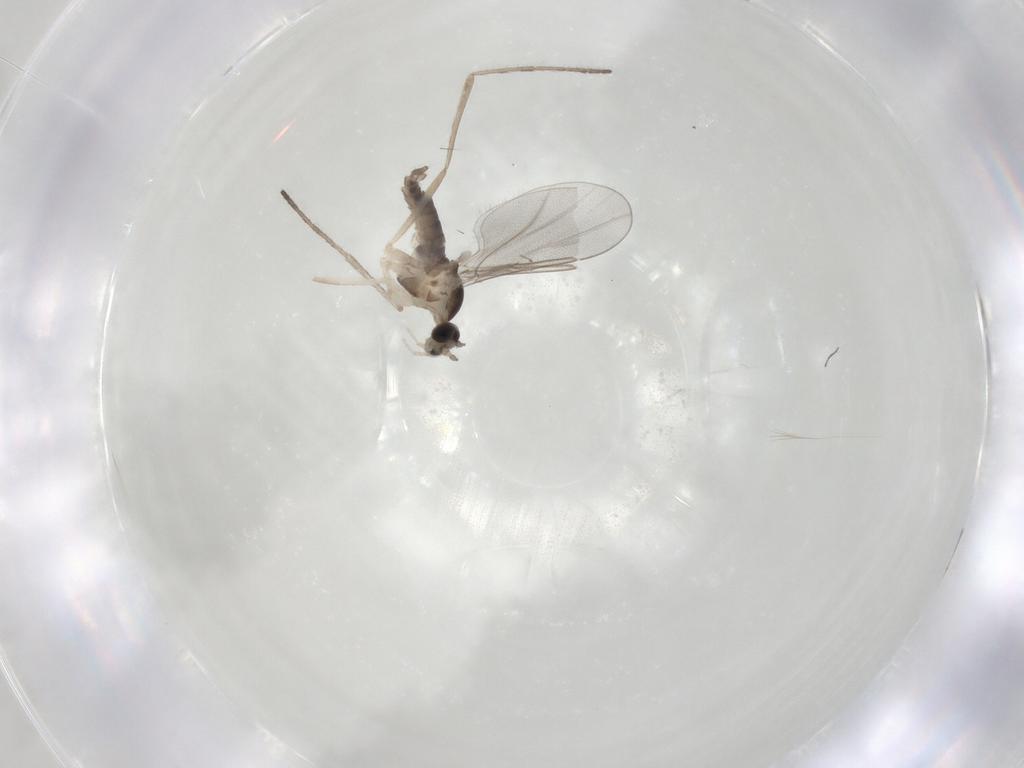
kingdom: Animalia
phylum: Arthropoda
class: Insecta
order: Diptera
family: Cecidomyiidae
